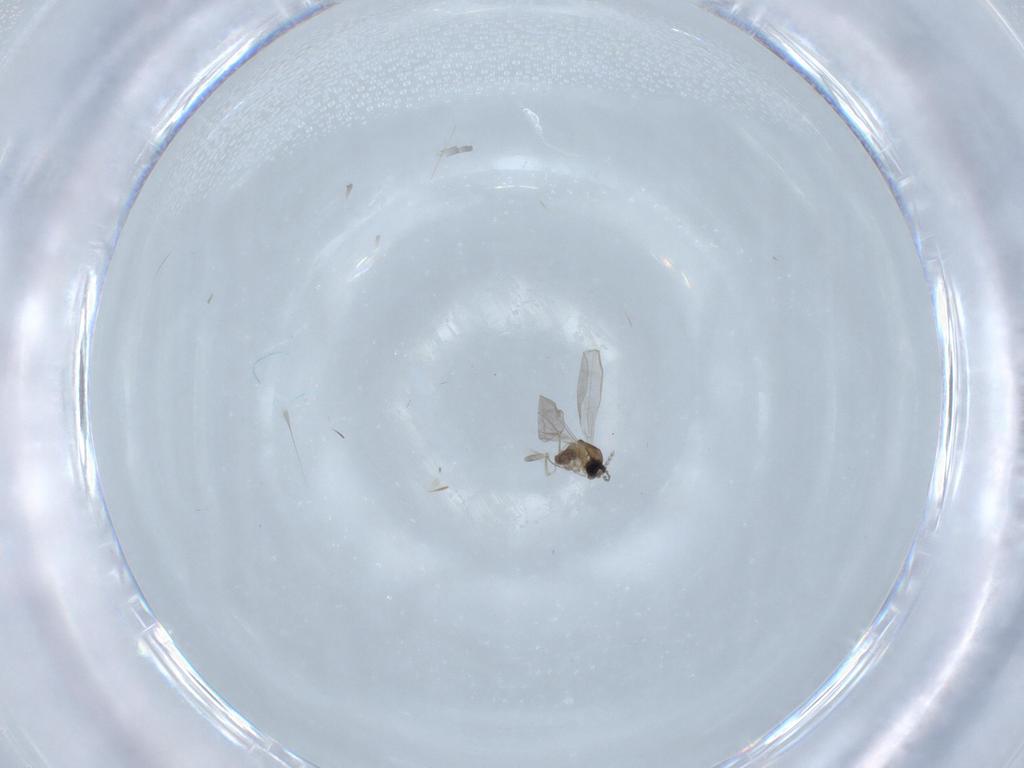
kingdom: Animalia
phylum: Arthropoda
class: Insecta
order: Diptera
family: Cecidomyiidae
